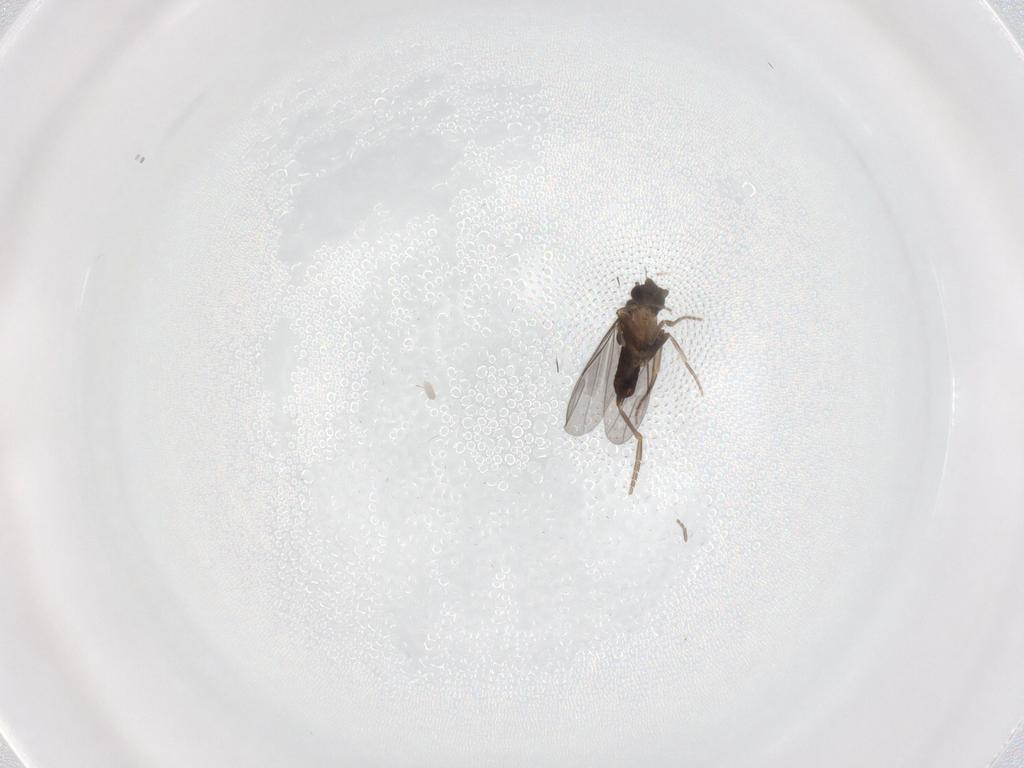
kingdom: Animalia
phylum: Arthropoda
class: Insecta
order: Diptera
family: Phoridae
